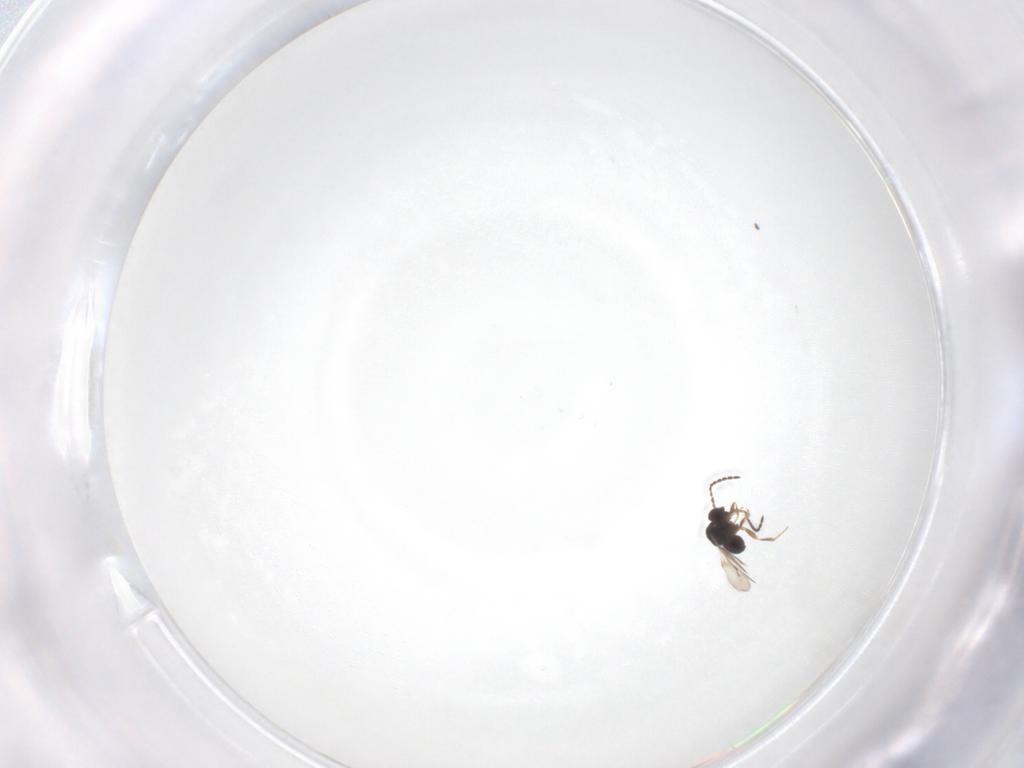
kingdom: Animalia
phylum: Arthropoda
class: Insecta
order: Hymenoptera
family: Ceraphronidae
